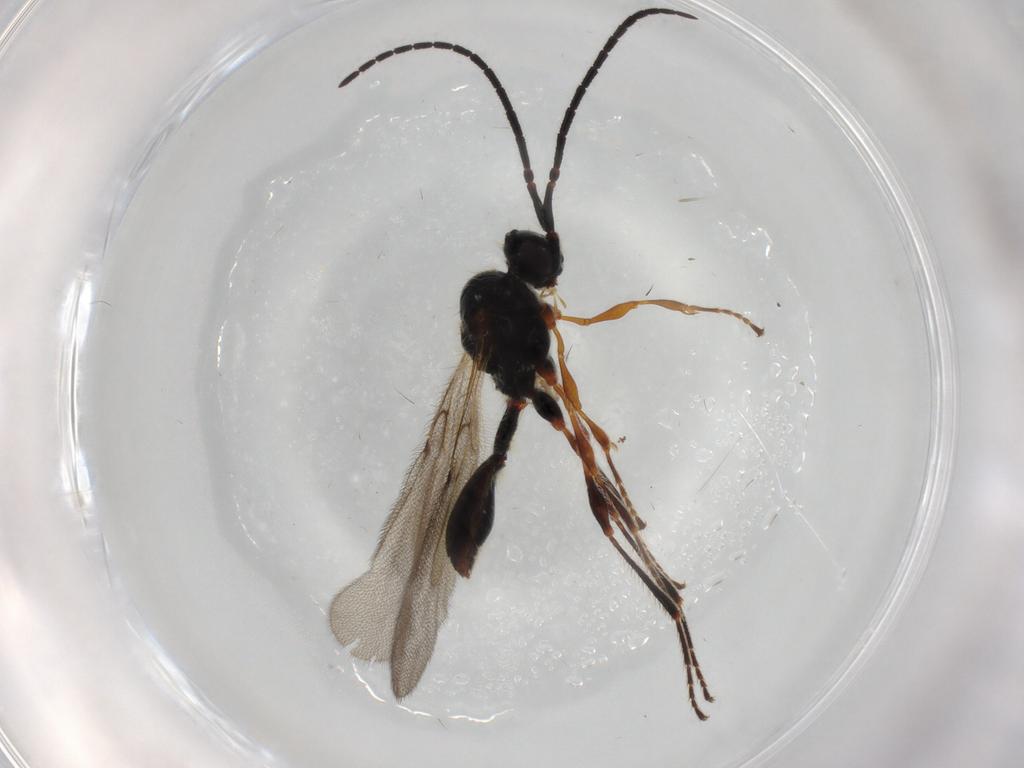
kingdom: Animalia
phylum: Arthropoda
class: Insecta
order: Hymenoptera
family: Diapriidae
